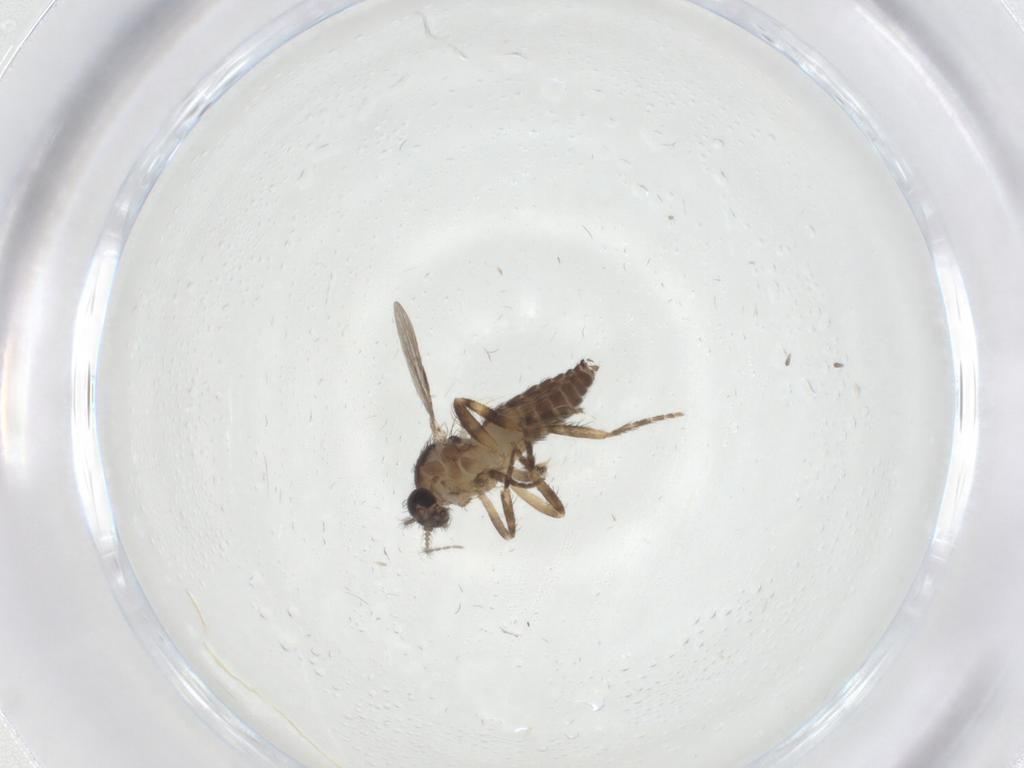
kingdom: Animalia
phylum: Arthropoda
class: Insecta
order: Diptera
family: Ceratopogonidae
